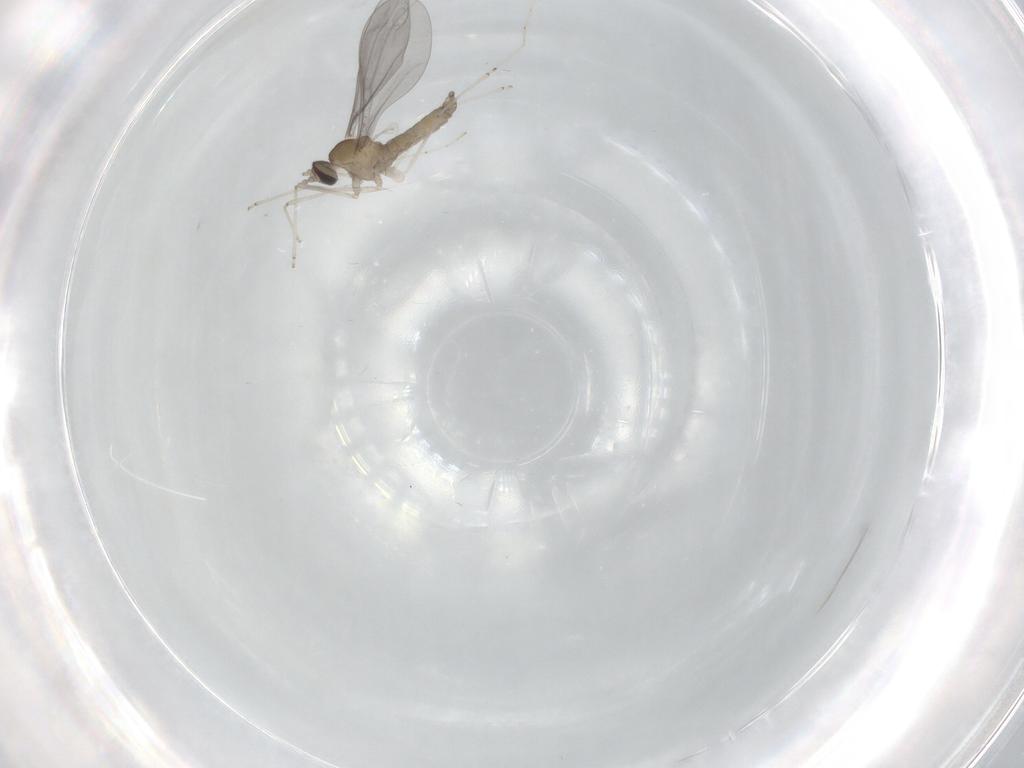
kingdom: Animalia
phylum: Arthropoda
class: Insecta
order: Diptera
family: Cecidomyiidae
